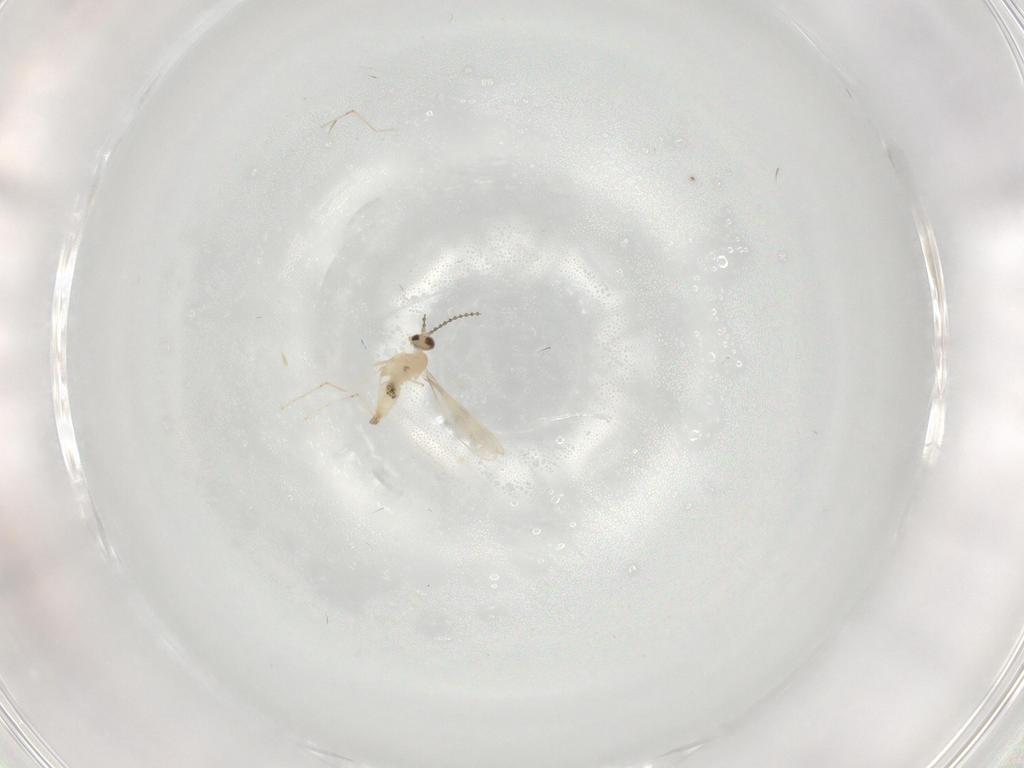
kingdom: Animalia
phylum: Arthropoda
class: Insecta
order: Diptera
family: Cecidomyiidae
